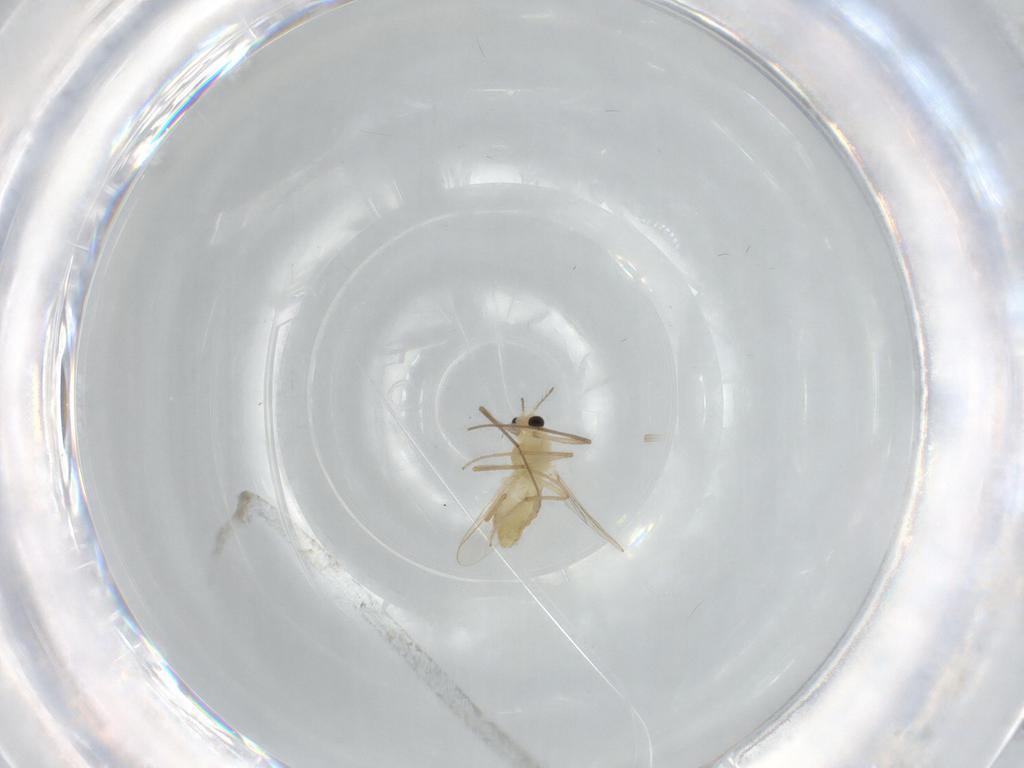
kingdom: Animalia
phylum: Arthropoda
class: Insecta
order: Diptera
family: Chironomidae
